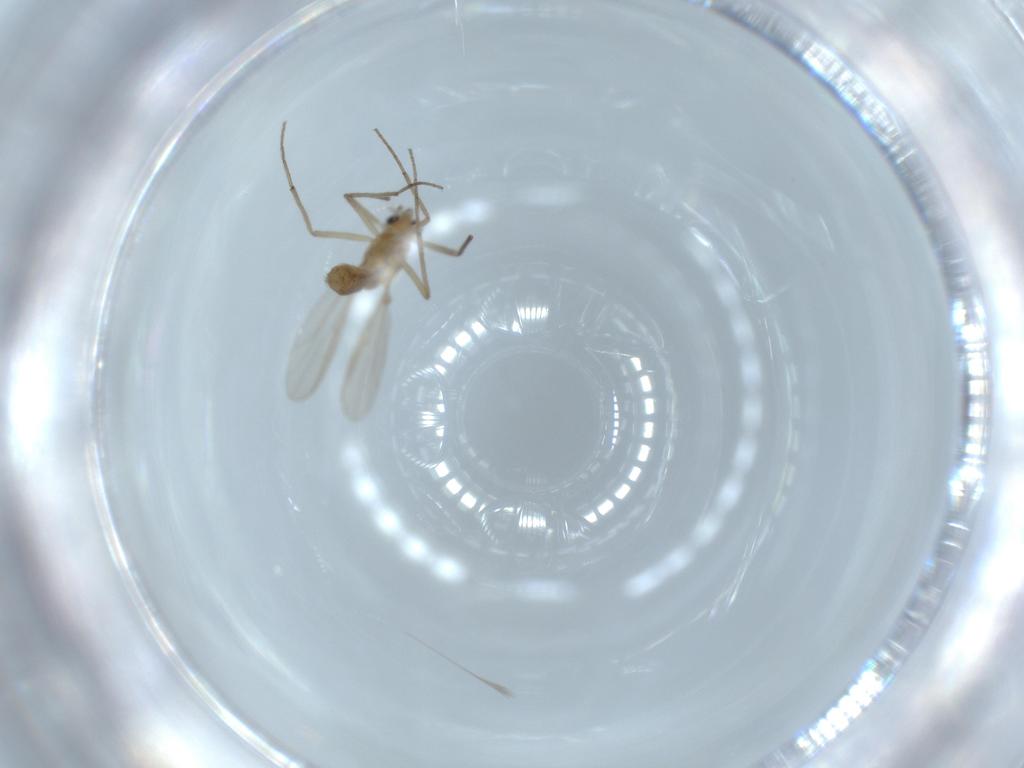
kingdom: Animalia
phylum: Arthropoda
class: Insecta
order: Diptera
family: Chironomidae
